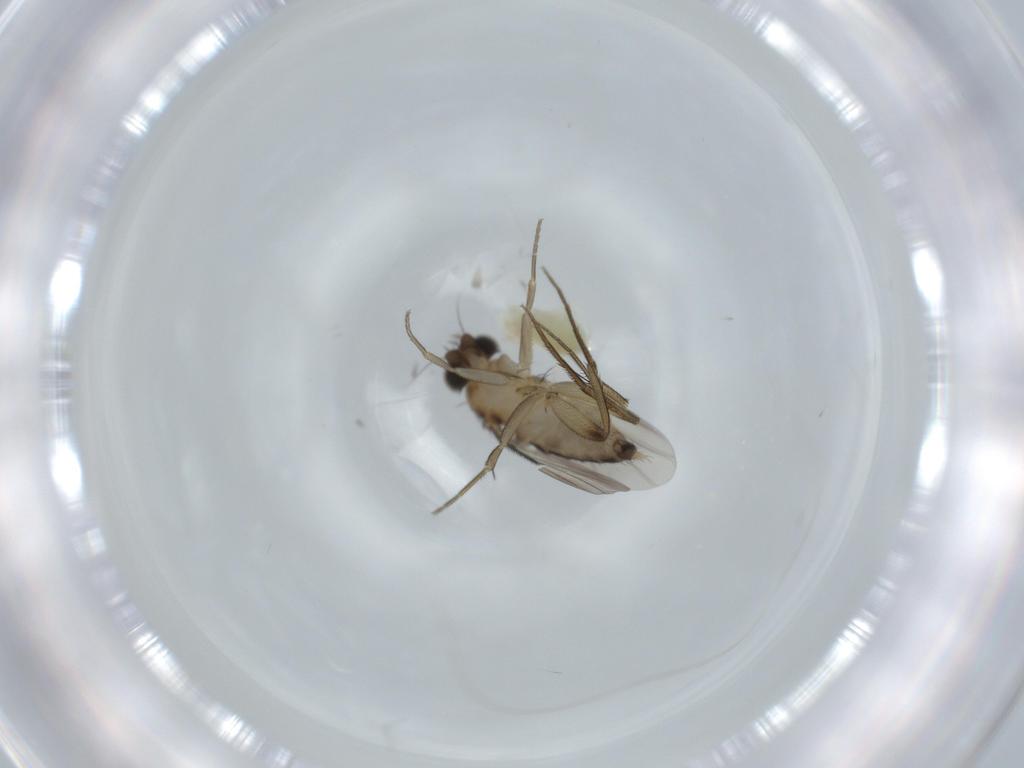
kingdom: Animalia
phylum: Arthropoda
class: Insecta
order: Diptera
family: Phoridae
